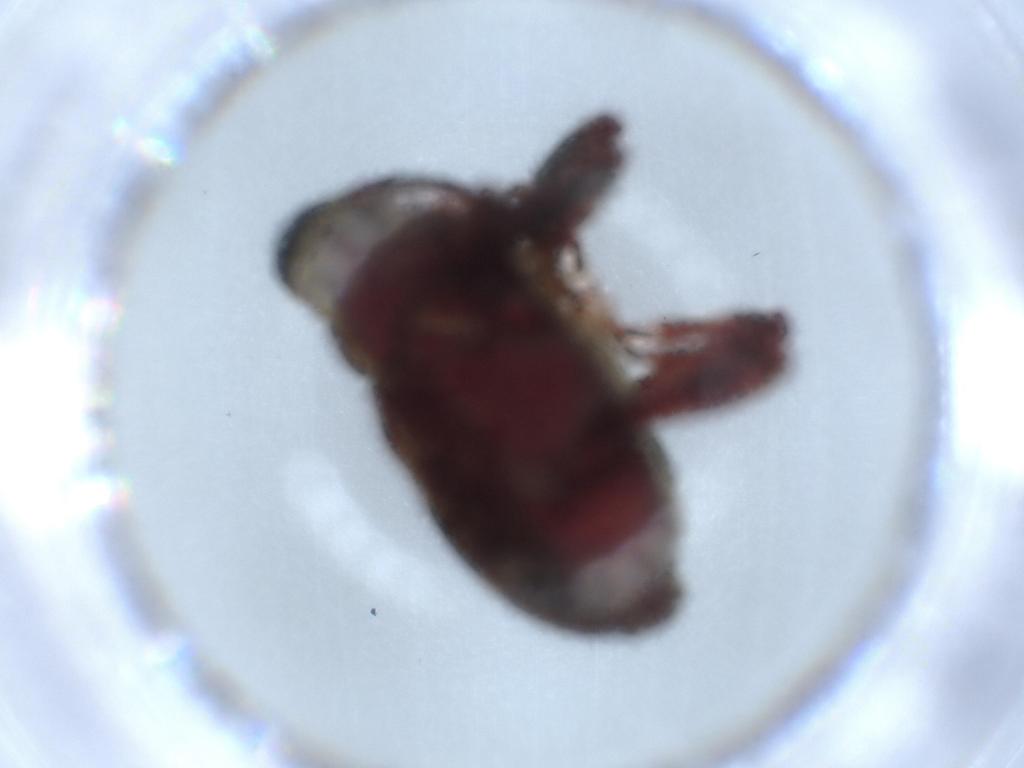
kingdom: Animalia
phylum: Arthropoda
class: Insecta
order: Coleoptera
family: Curculionidae
